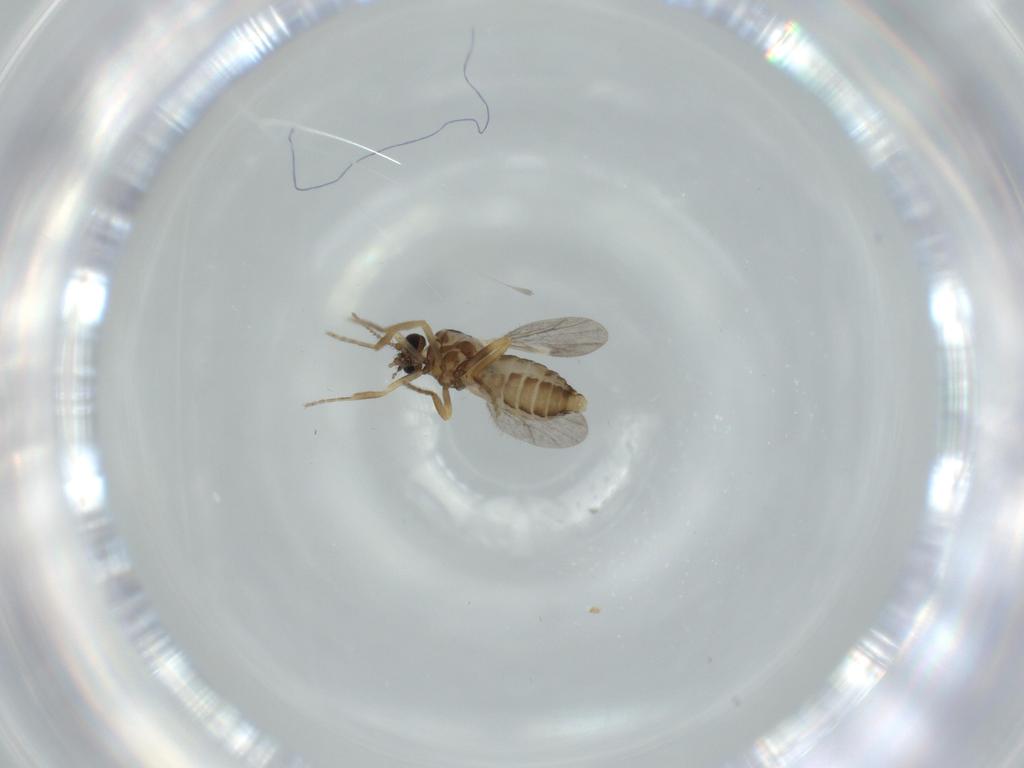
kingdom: Animalia
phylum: Arthropoda
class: Insecta
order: Diptera
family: Ceratopogonidae
